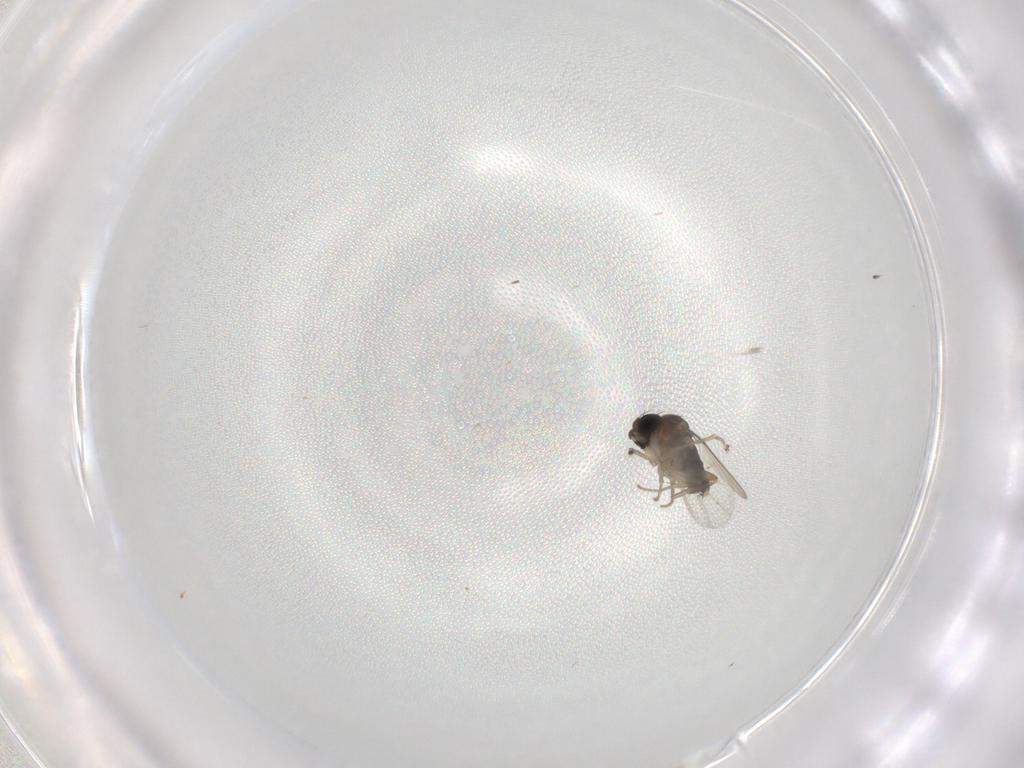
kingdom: Animalia
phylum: Arthropoda
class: Insecta
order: Diptera
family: Phoridae
